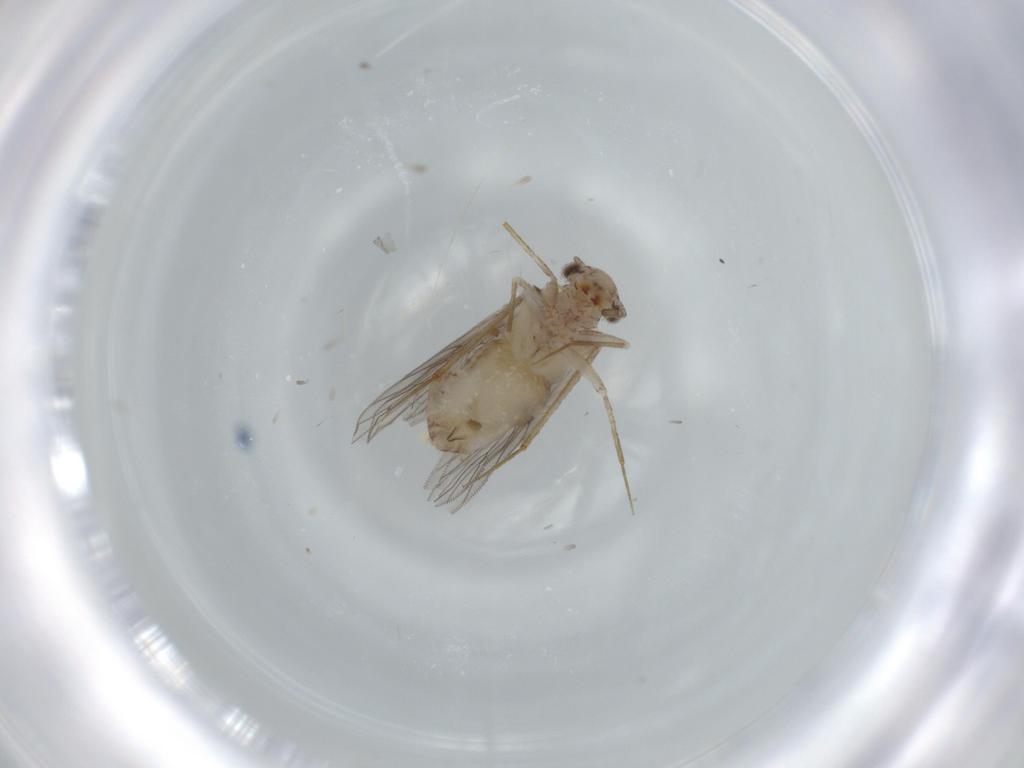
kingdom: Animalia
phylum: Arthropoda
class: Insecta
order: Psocodea
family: Lepidopsocidae
